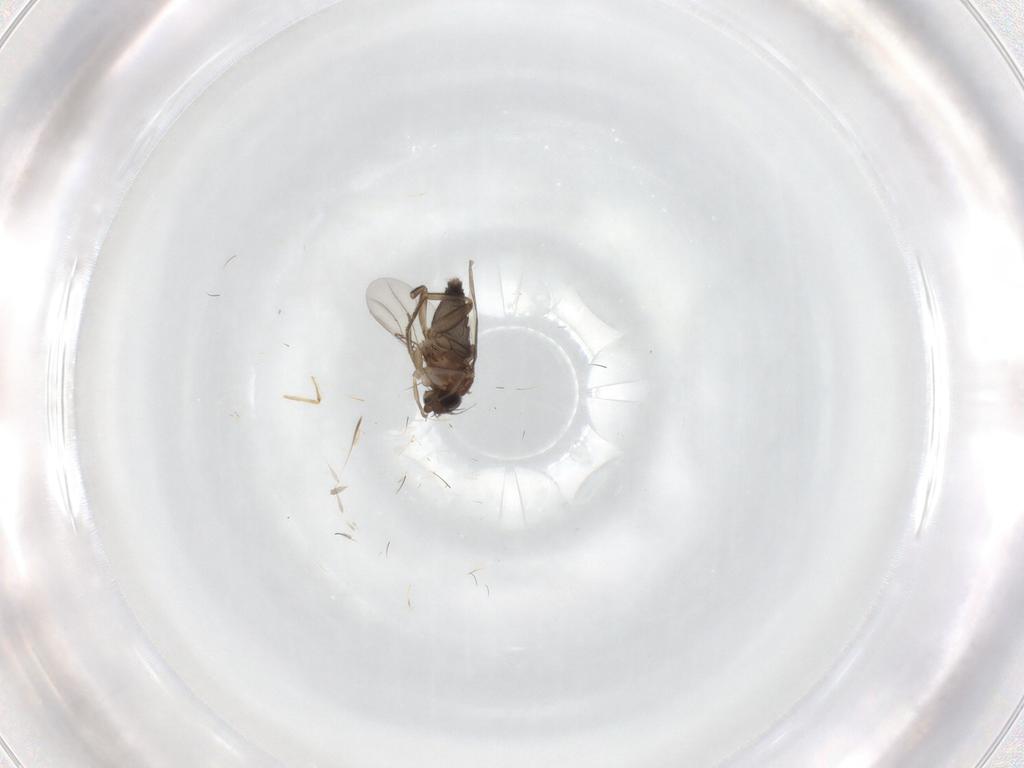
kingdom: Animalia
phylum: Arthropoda
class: Insecta
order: Diptera
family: Phoridae
